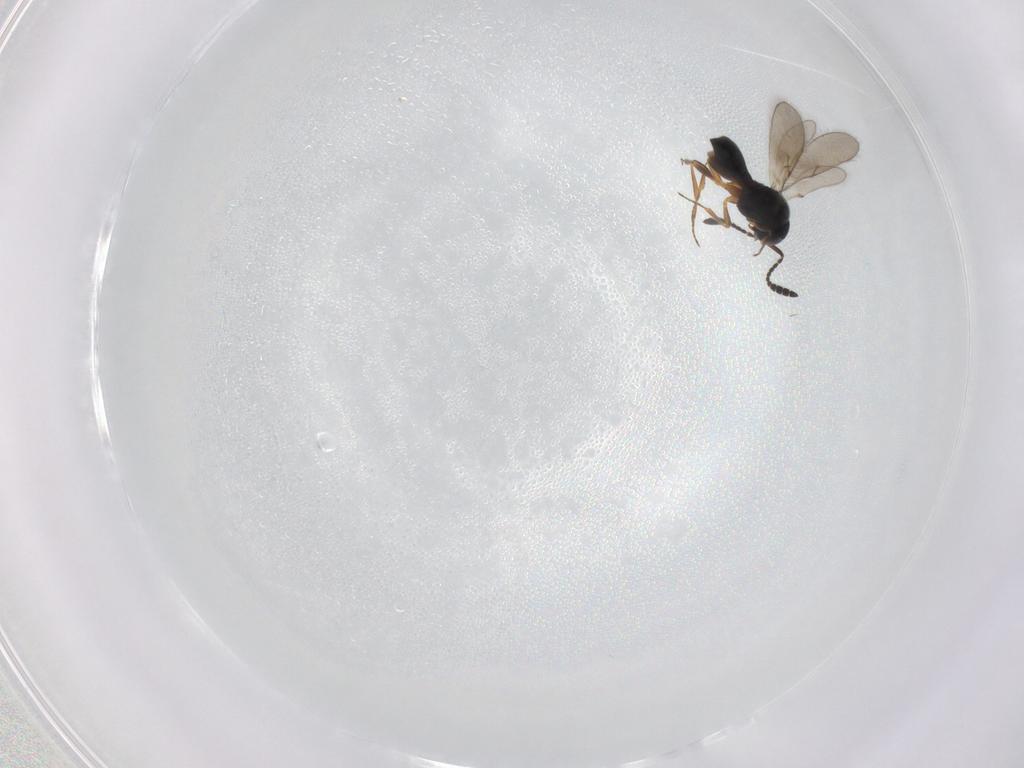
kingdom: Animalia
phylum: Arthropoda
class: Insecta
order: Hymenoptera
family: Scelionidae
